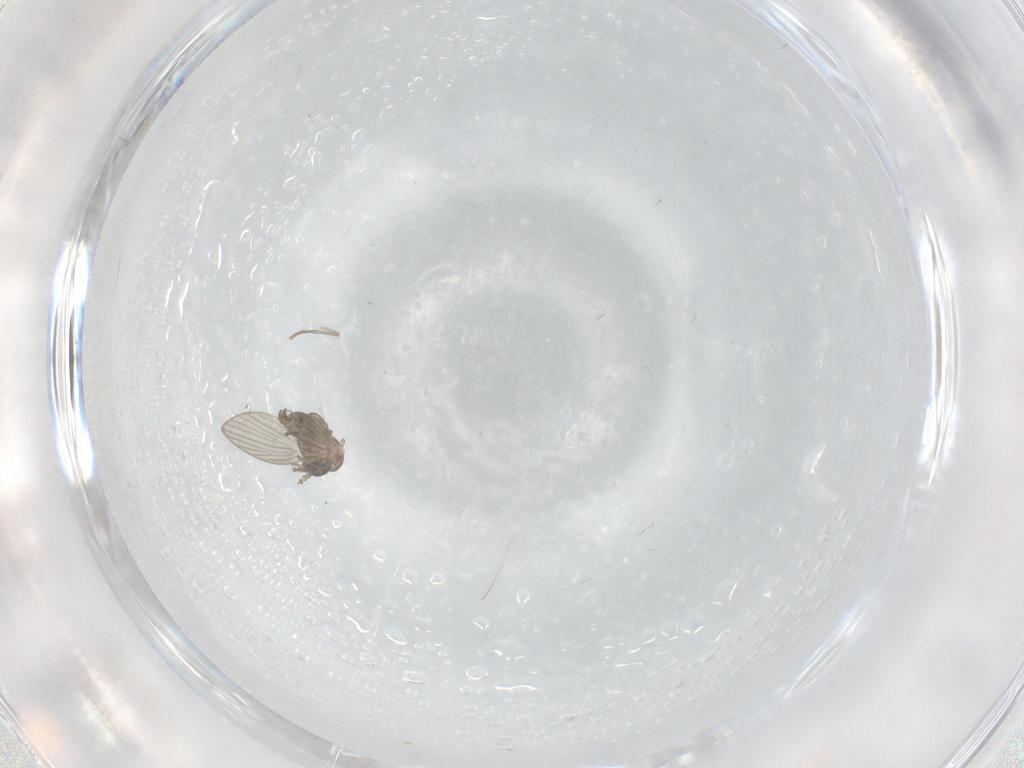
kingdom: Animalia
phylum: Arthropoda
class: Insecta
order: Diptera
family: Psychodidae
